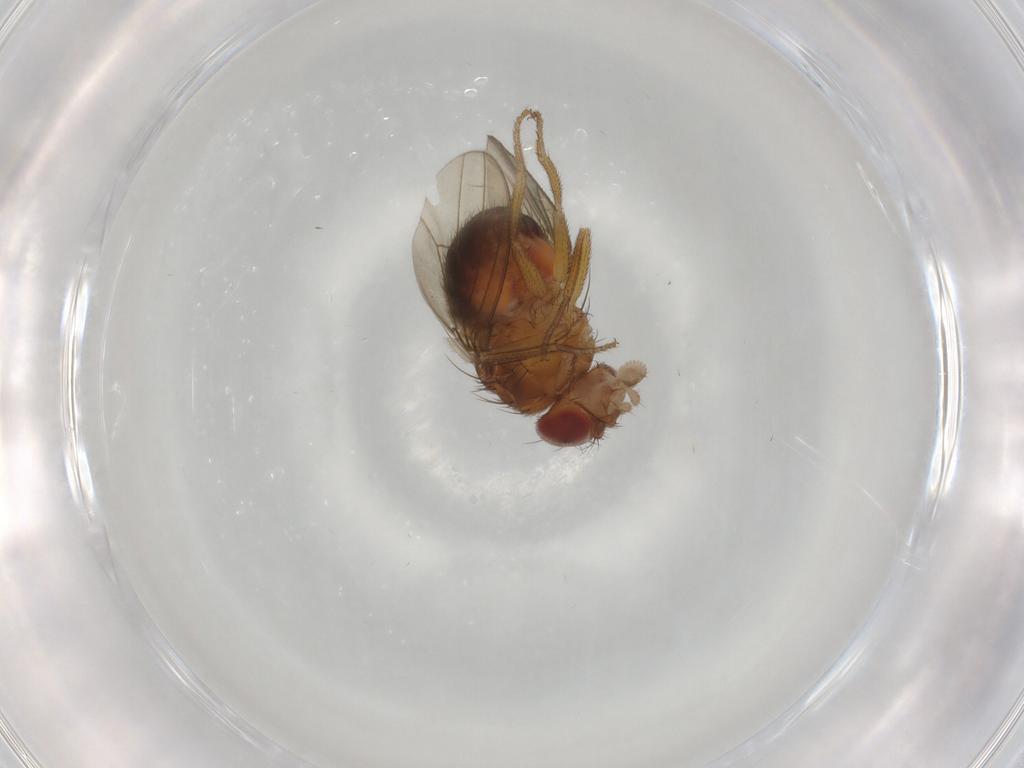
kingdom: Animalia
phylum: Arthropoda
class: Insecta
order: Diptera
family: Drosophilidae
